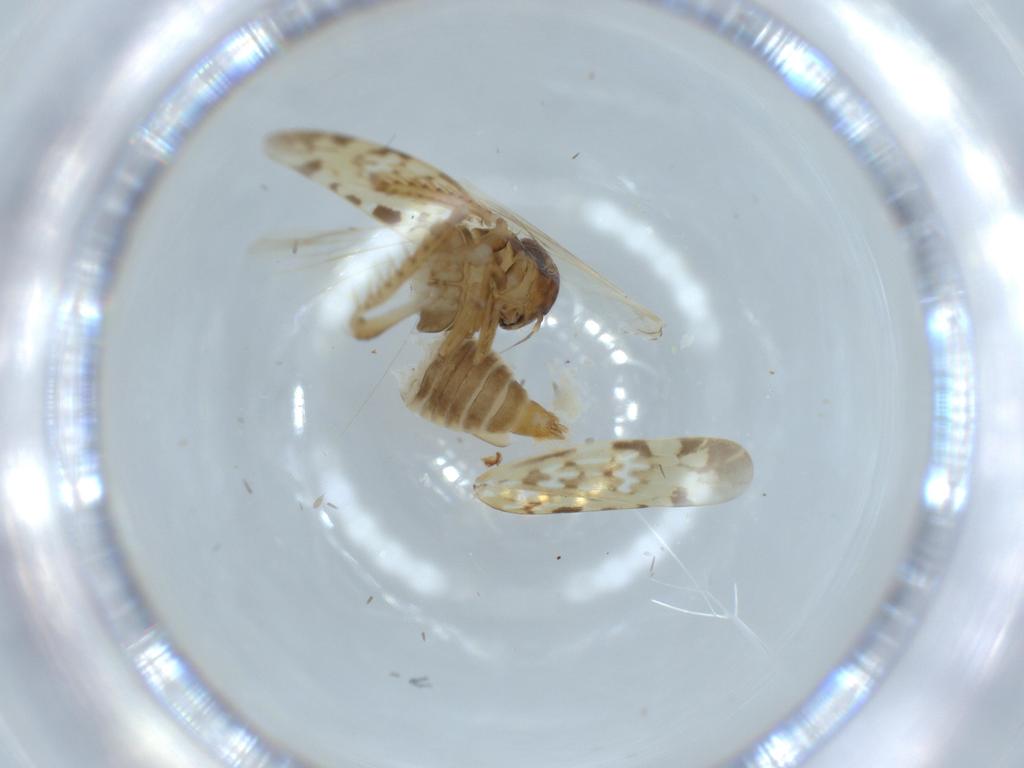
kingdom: Animalia
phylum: Arthropoda
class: Insecta
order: Hemiptera
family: Cicadellidae
